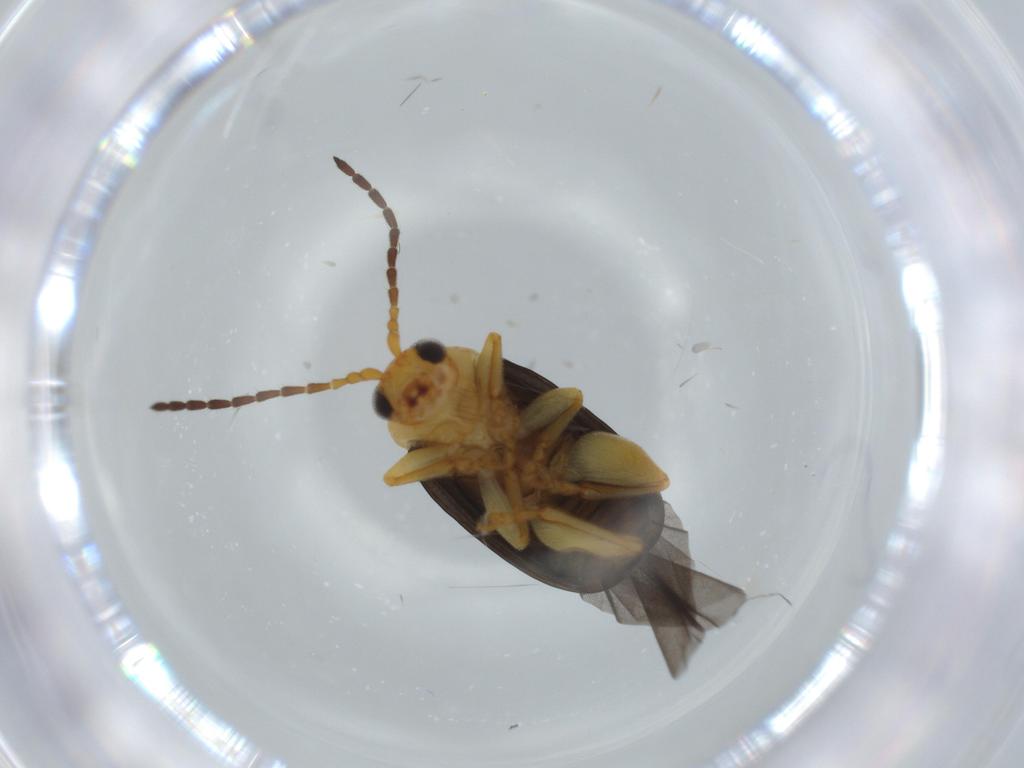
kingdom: Animalia
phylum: Arthropoda
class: Insecta
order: Coleoptera
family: Chrysomelidae
